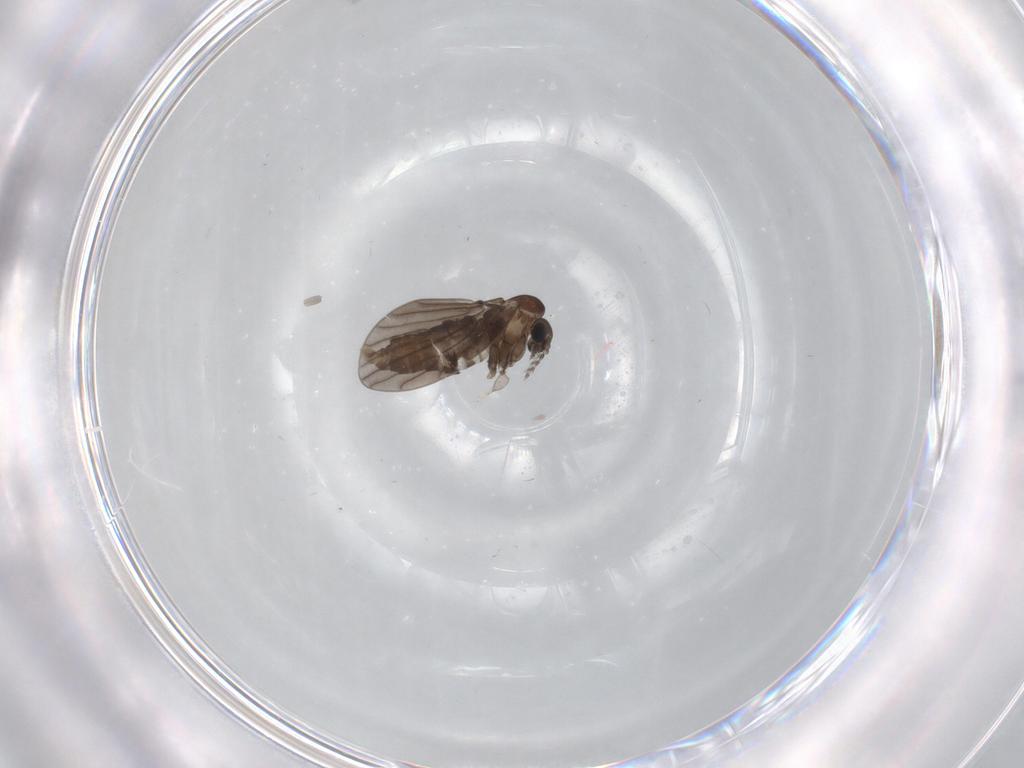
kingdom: Animalia
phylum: Arthropoda
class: Insecta
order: Diptera
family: Psychodidae
